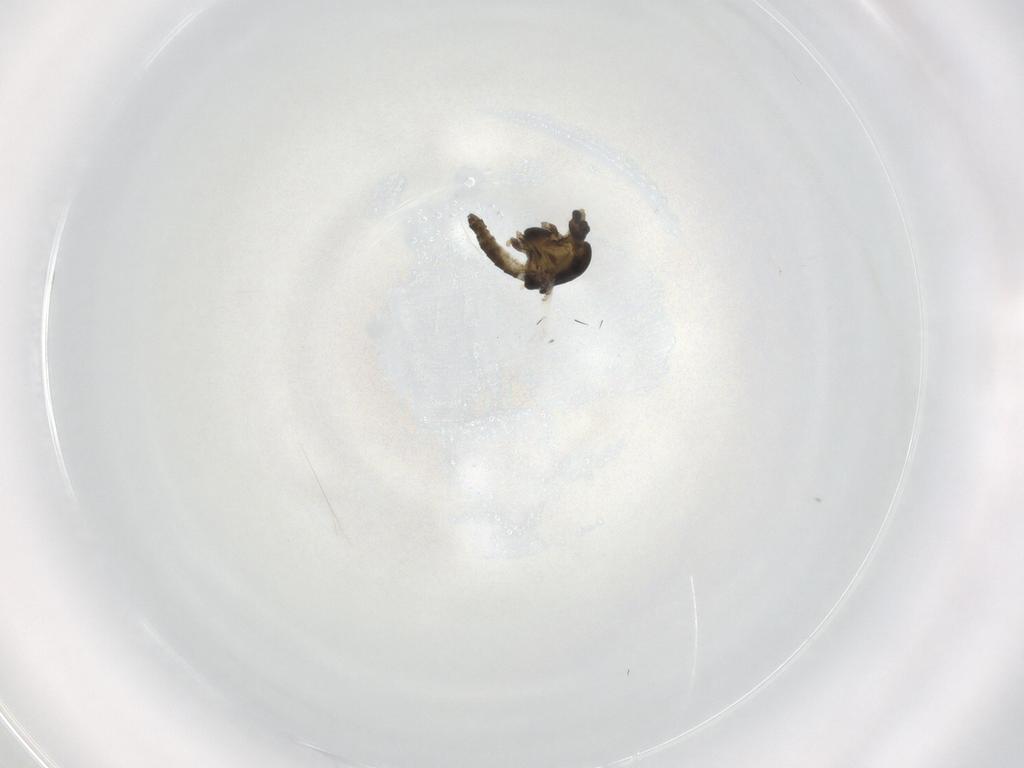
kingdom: Animalia
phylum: Arthropoda
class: Insecta
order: Diptera
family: Chironomidae
